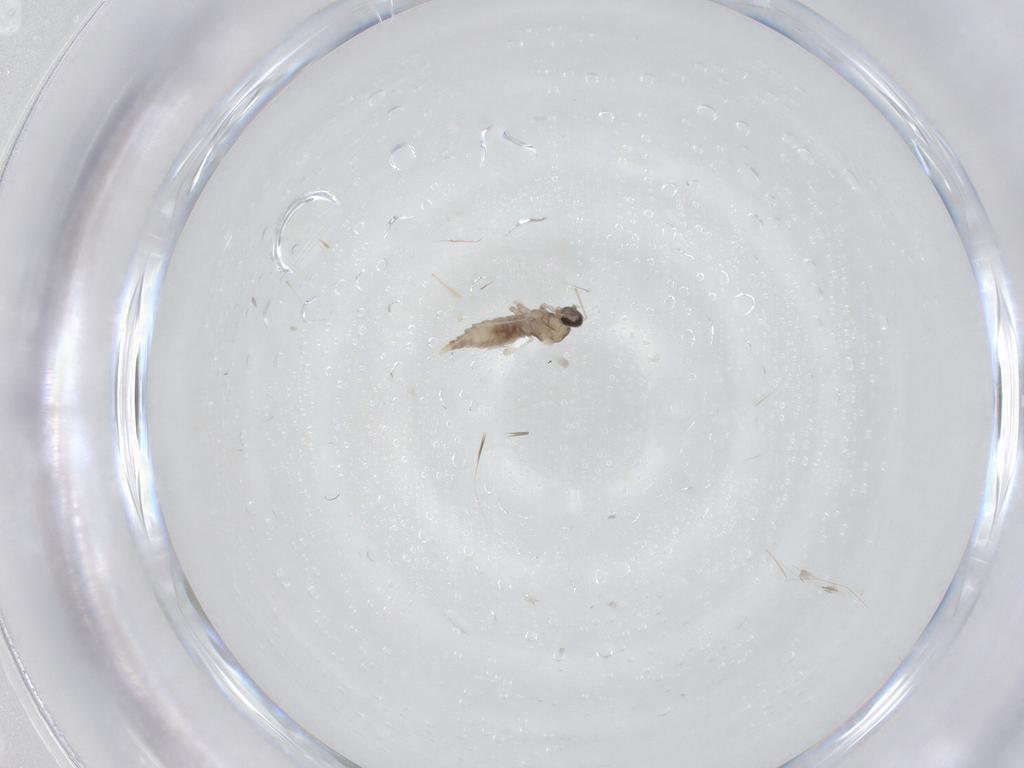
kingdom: Animalia
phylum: Arthropoda
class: Insecta
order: Diptera
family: Cecidomyiidae
